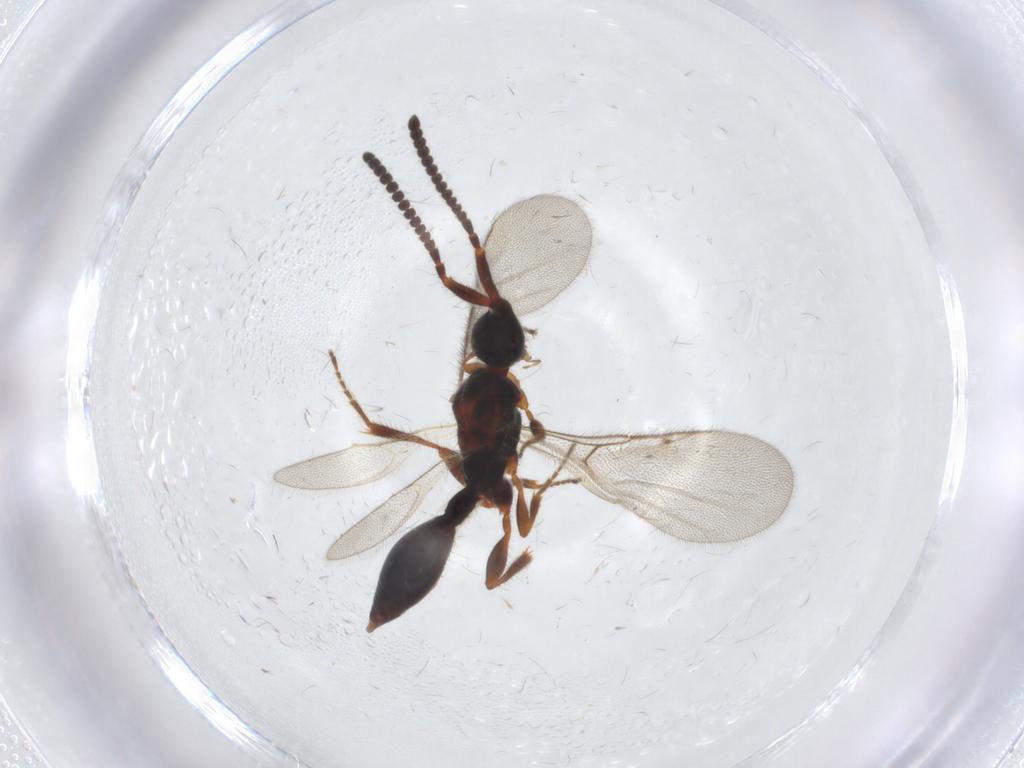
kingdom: Animalia
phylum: Arthropoda
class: Insecta
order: Hymenoptera
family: Diapriidae
